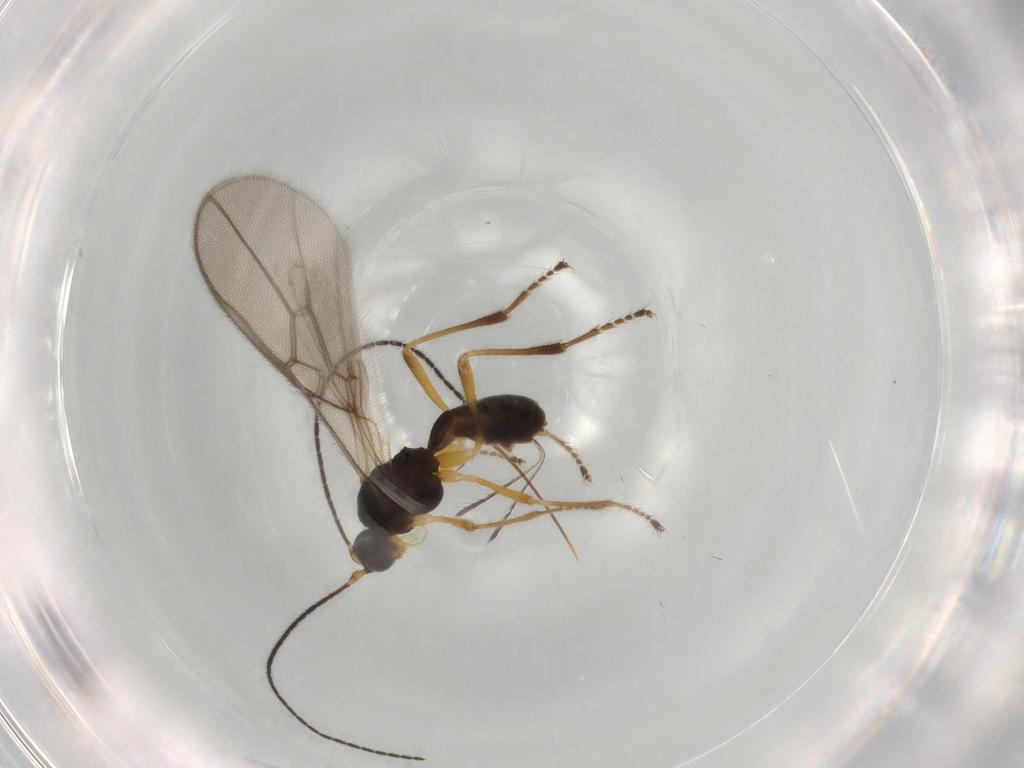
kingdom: Animalia
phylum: Arthropoda
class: Insecta
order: Hymenoptera
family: Braconidae
